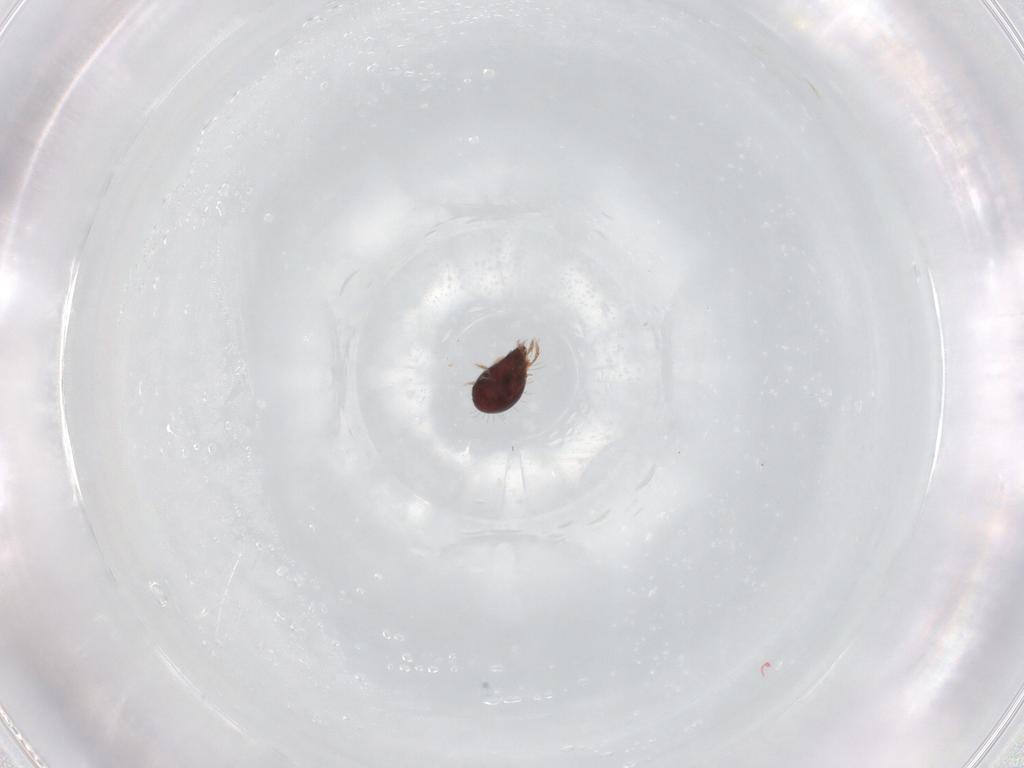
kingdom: Animalia
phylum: Arthropoda
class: Arachnida
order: Sarcoptiformes
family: Ceratozetidae
